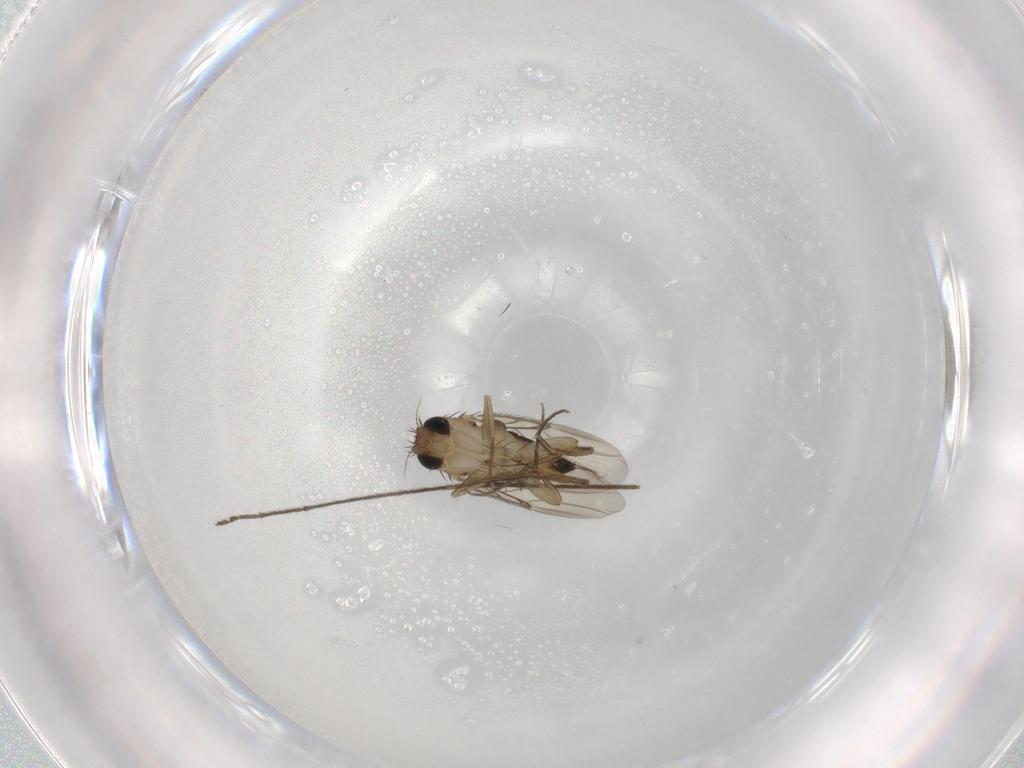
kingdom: Animalia
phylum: Arthropoda
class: Insecta
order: Diptera
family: Phoridae
